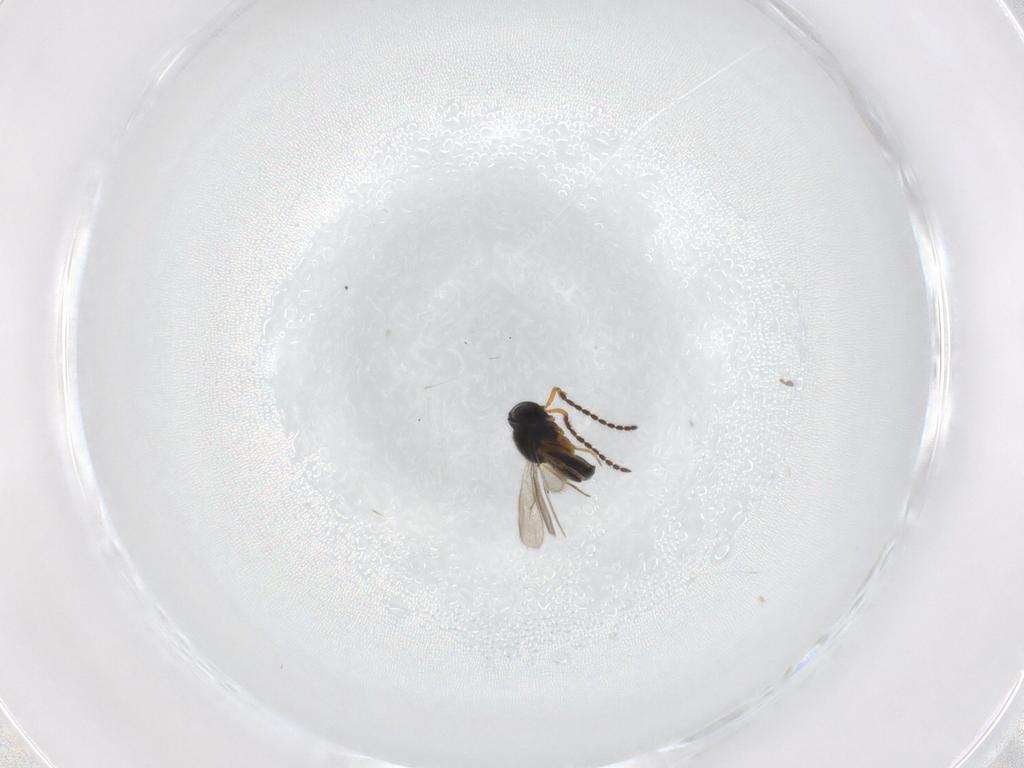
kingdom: Animalia
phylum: Arthropoda
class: Insecta
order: Hymenoptera
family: Scelionidae
